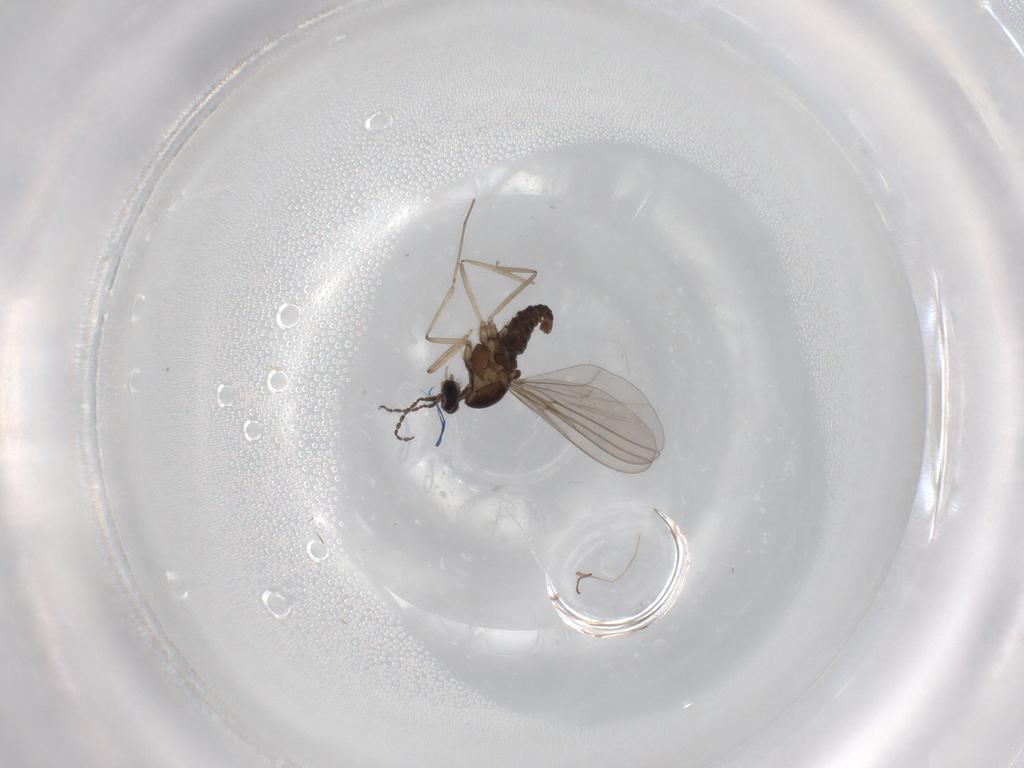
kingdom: Animalia
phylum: Arthropoda
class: Insecta
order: Diptera
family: Cecidomyiidae
